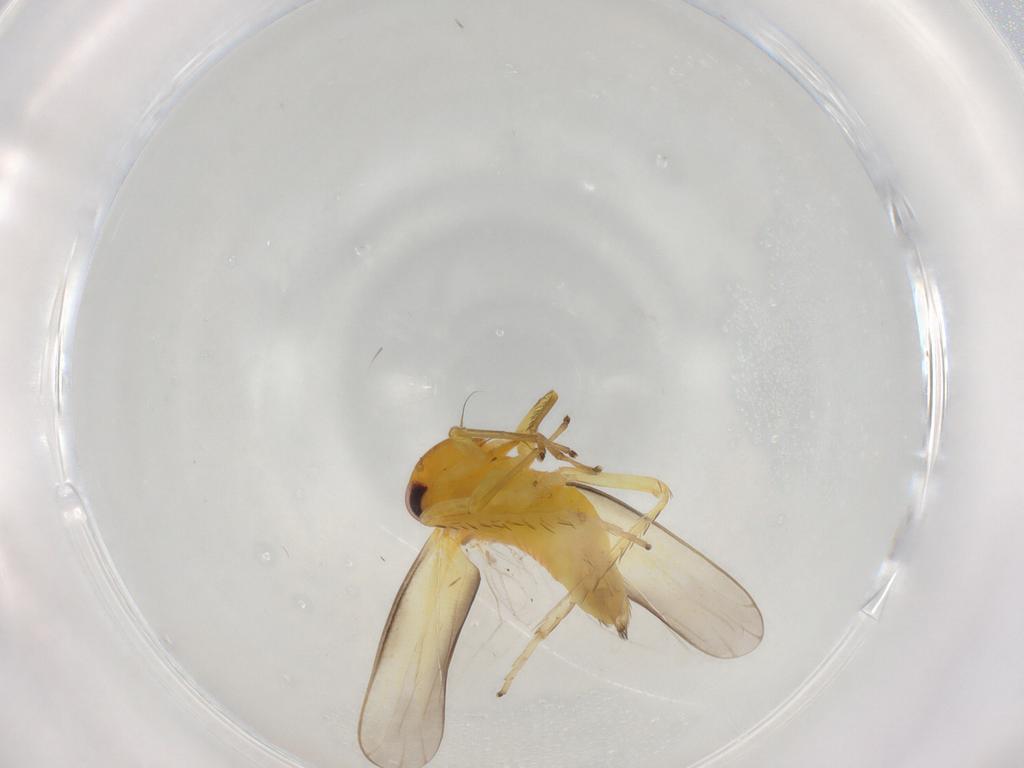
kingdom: Animalia
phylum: Arthropoda
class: Insecta
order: Hemiptera
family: Cicadellidae
